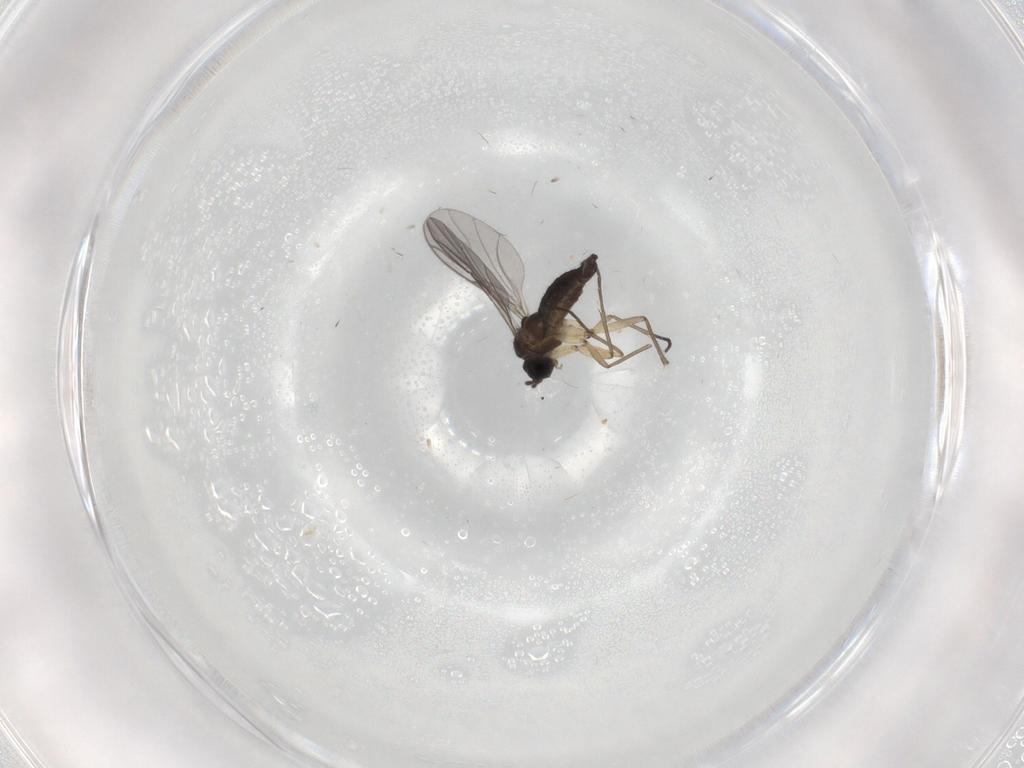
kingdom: Animalia
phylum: Arthropoda
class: Insecta
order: Diptera
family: Sciaridae
